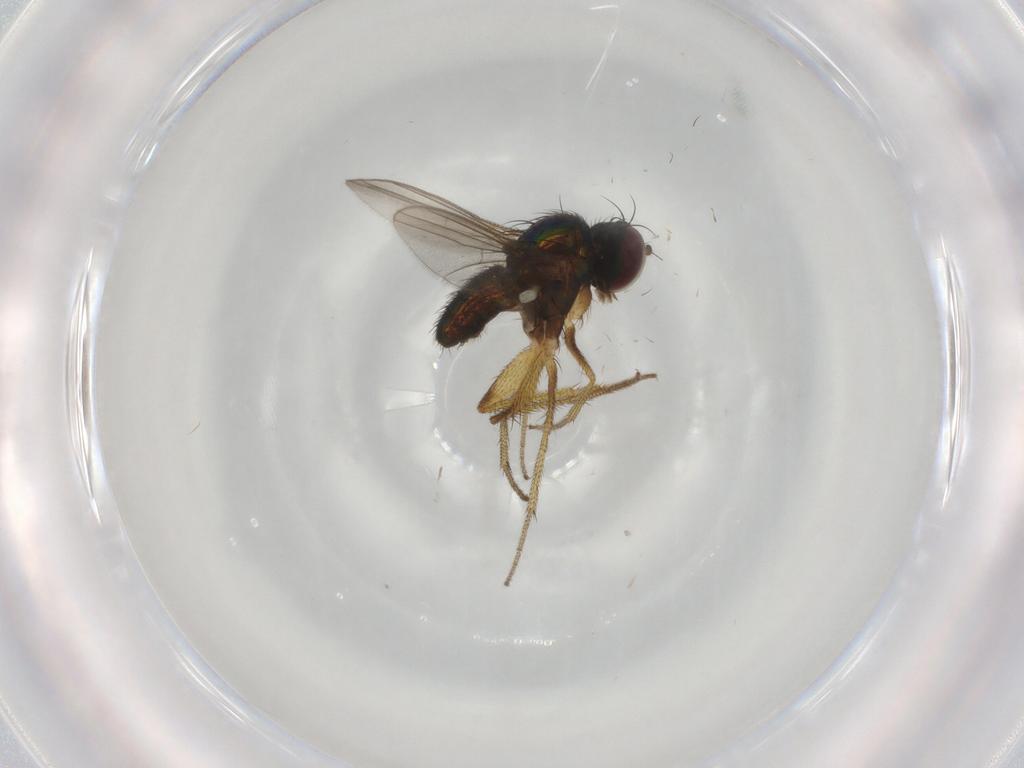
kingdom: Animalia
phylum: Arthropoda
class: Insecta
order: Diptera
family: Dolichopodidae
